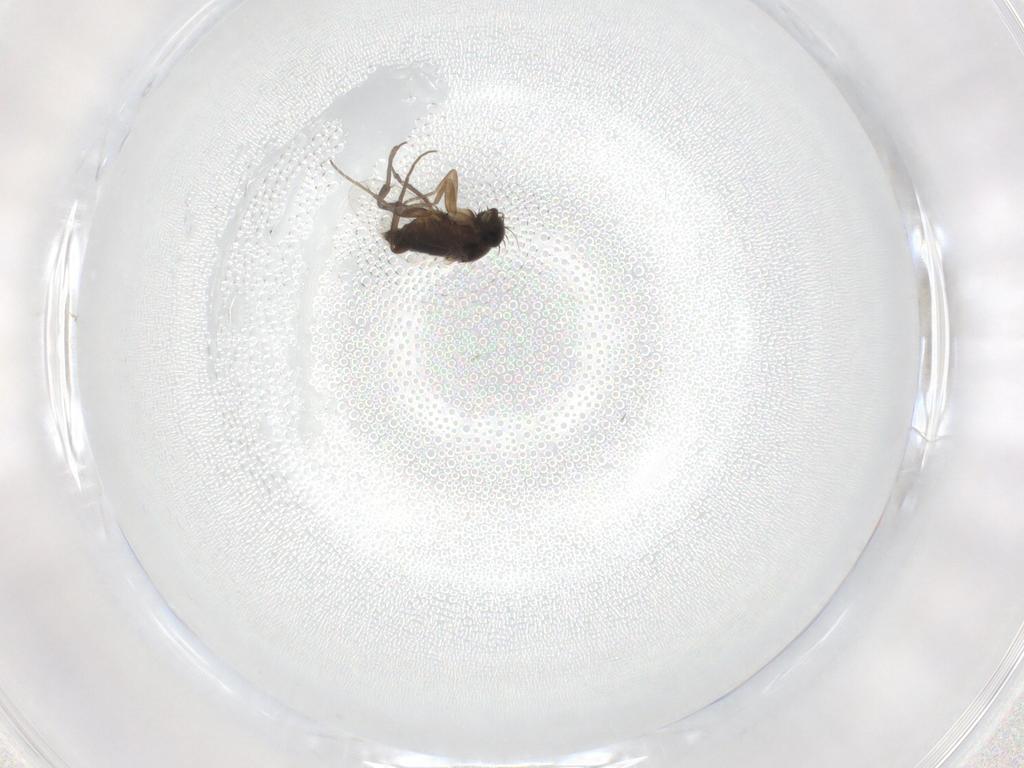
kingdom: Animalia
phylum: Arthropoda
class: Insecta
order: Diptera
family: Phoridae
